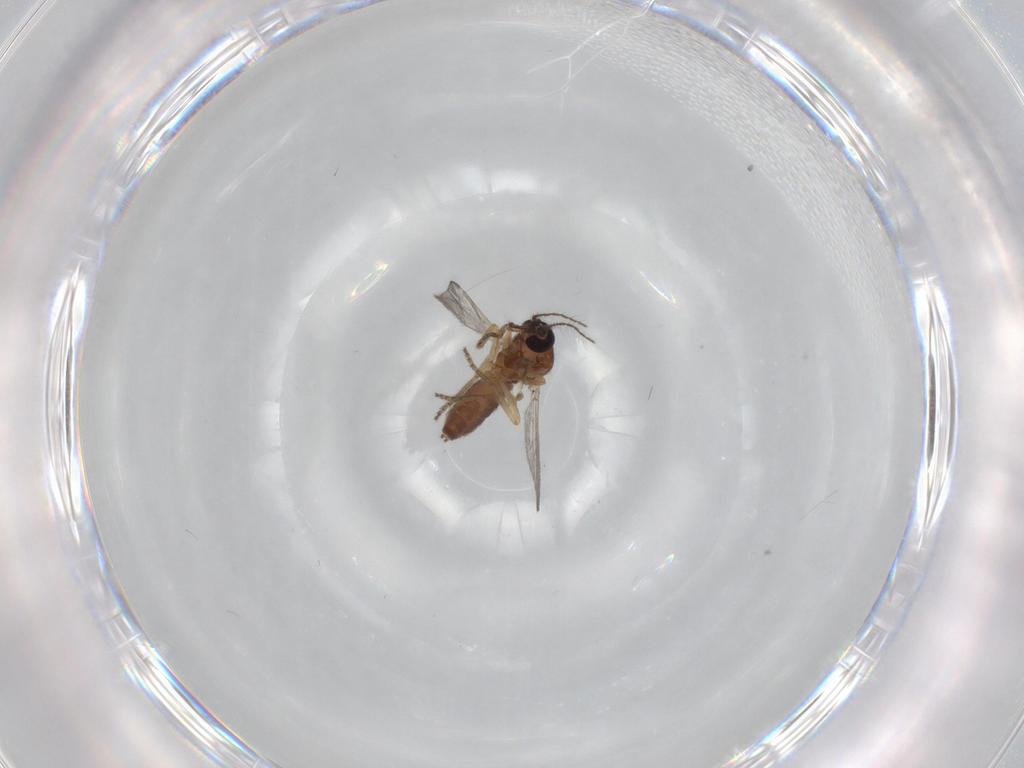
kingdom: Animalia
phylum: Arthropoda
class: Insecta
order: Diptera
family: Ceratopogonidae
